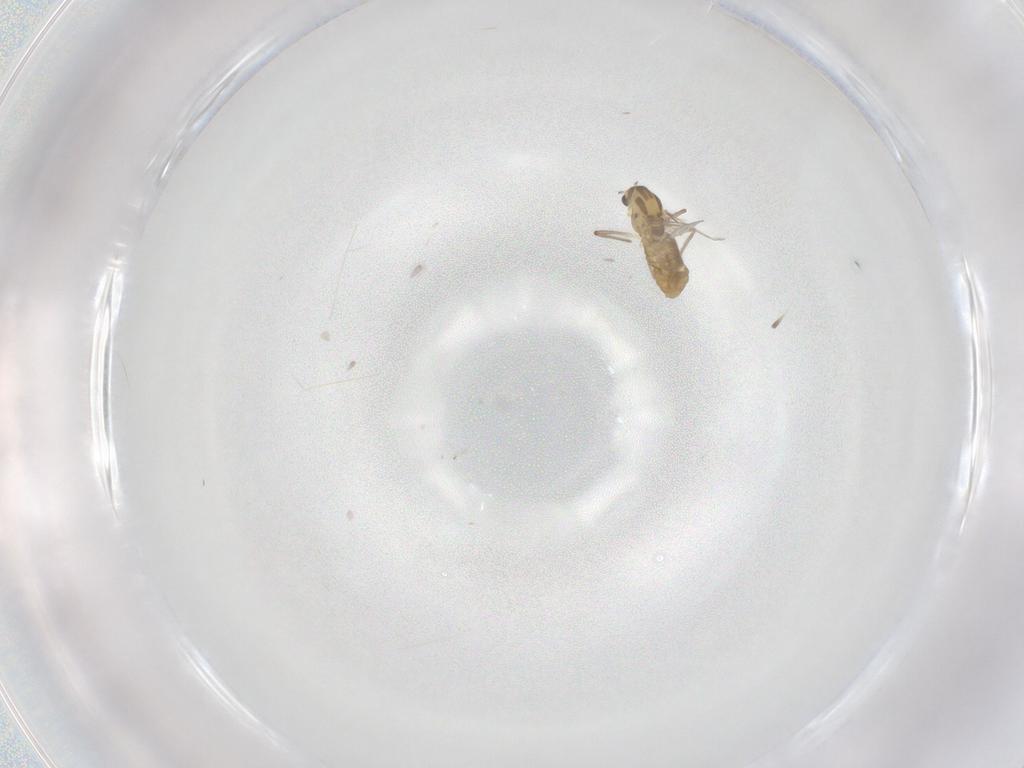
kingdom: Animalia
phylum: Arthropoda
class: Insecta
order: Diptera
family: Chironomidae
